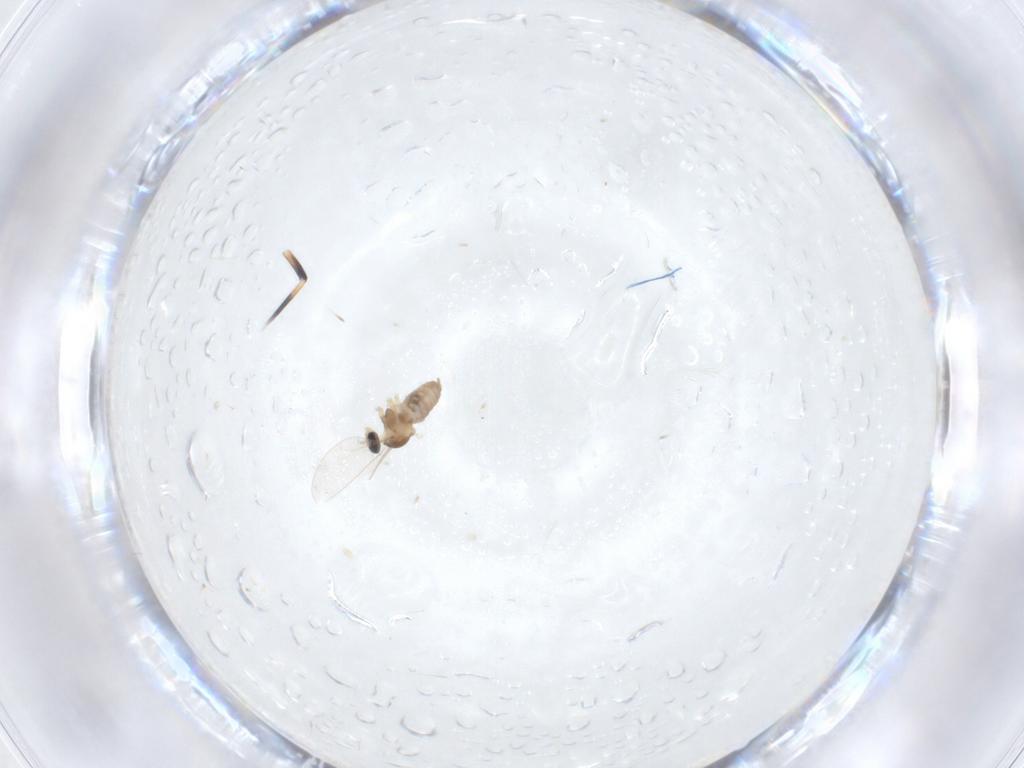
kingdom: Animalia
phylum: Arthropoda
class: Insecta
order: Diptera
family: Cecidomyiidae
